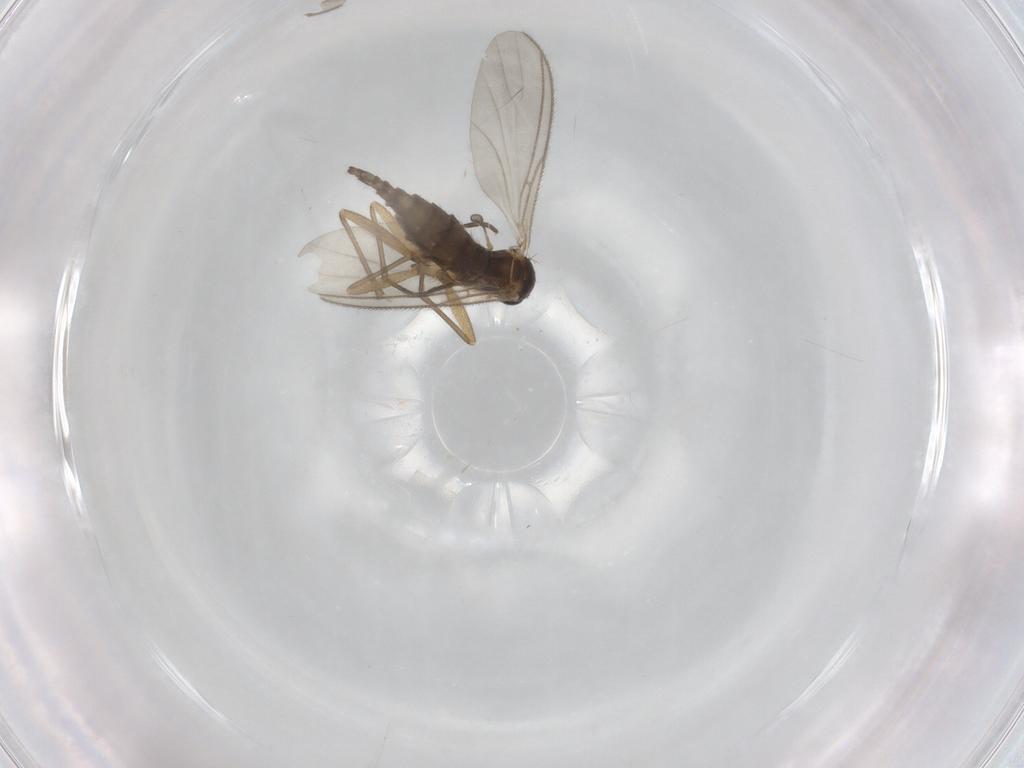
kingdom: Animalia
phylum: Arthropoda
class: Insecta
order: Diptera
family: Sciaridae
